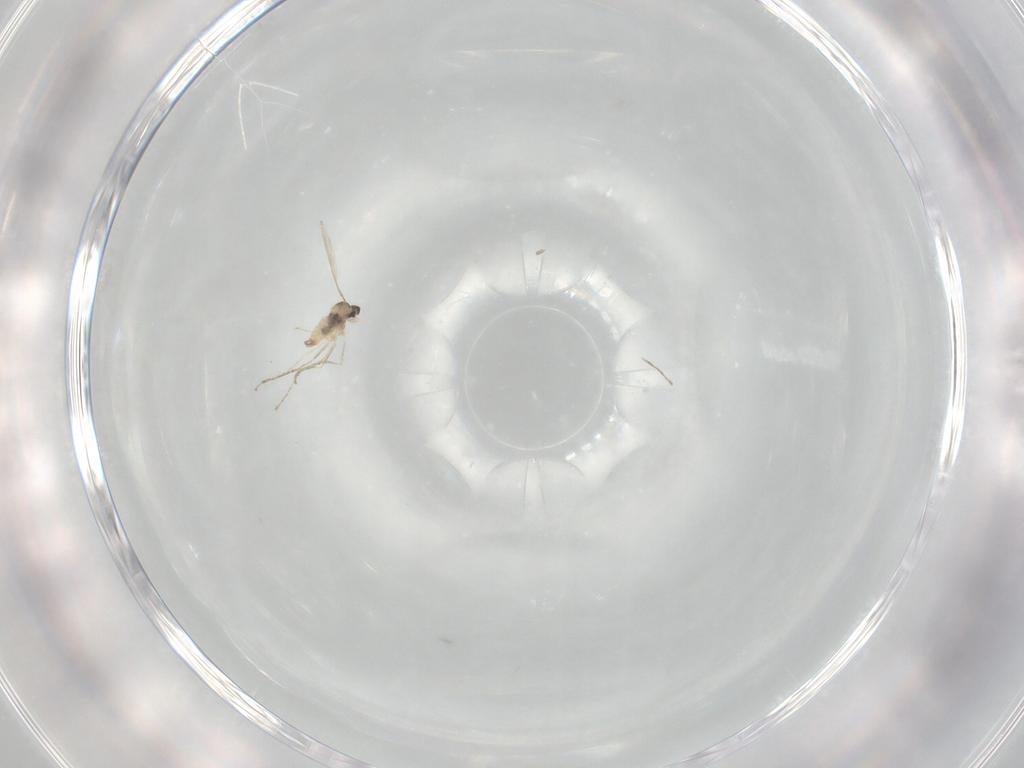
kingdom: Animalia
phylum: Arthropoda
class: Insecta
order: Diptera
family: Cecidomyiidae
